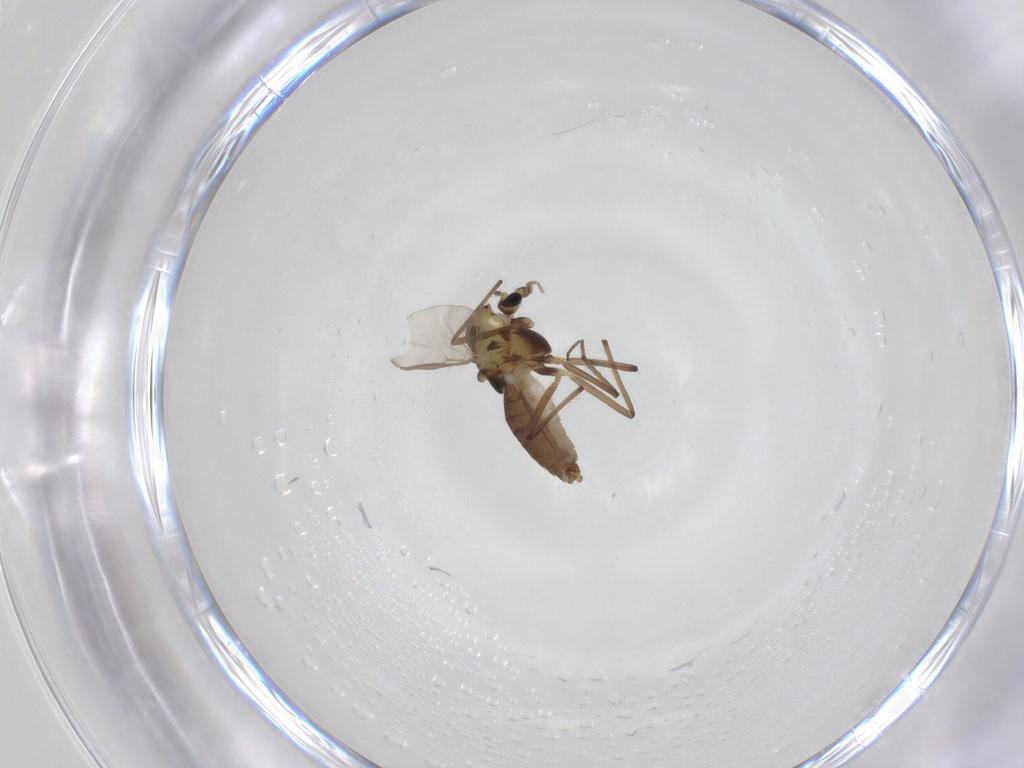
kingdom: Animalia
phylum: Arthropoda
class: Insecta
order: Diptera
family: Chironomidae
